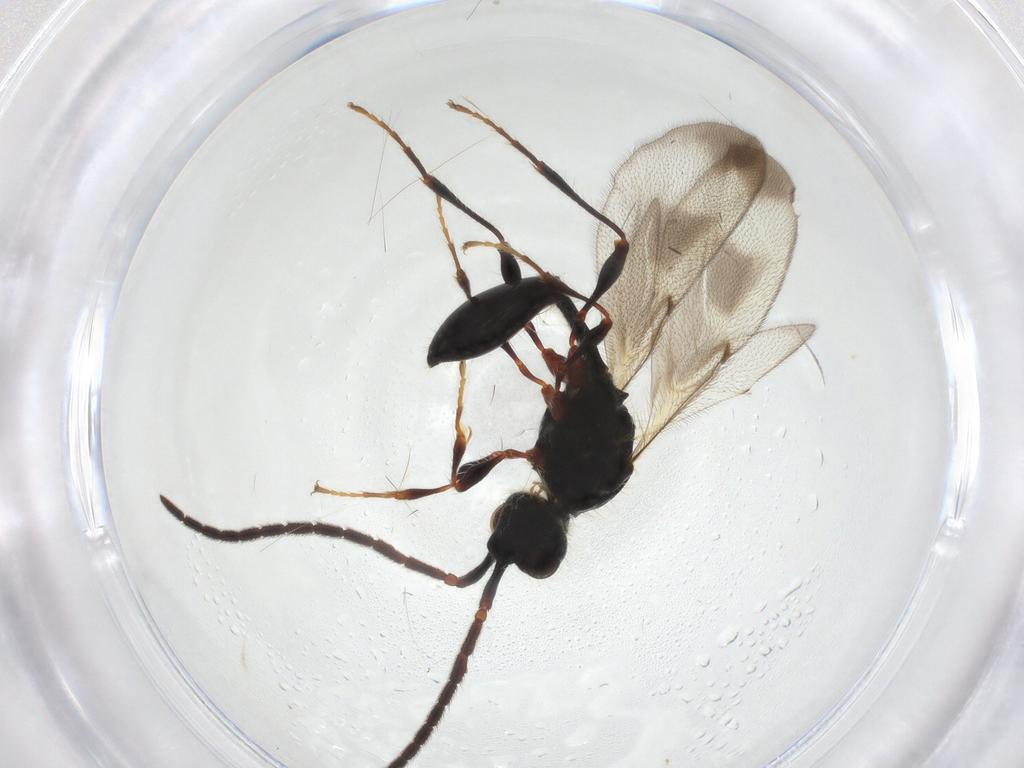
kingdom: Animalia
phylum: Arthropoda
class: Insecta
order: Hymenoptera
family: Diapriidae
